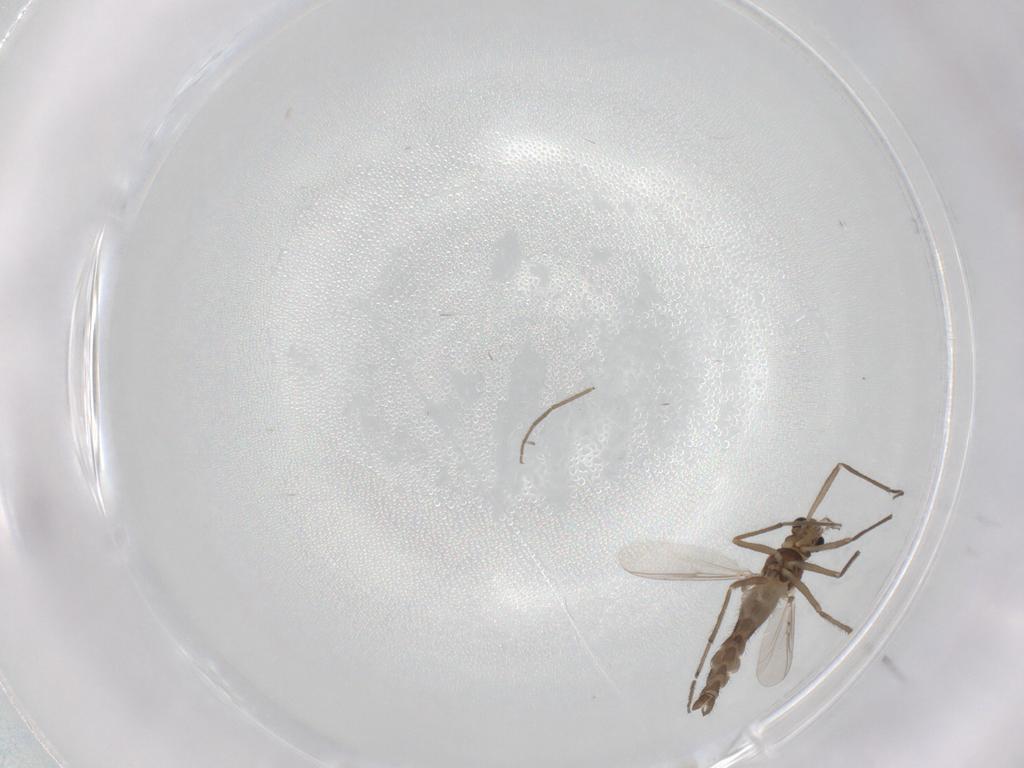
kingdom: Animalia
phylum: Arthropoda
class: Insecta
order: Diptera
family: Chironomidae
